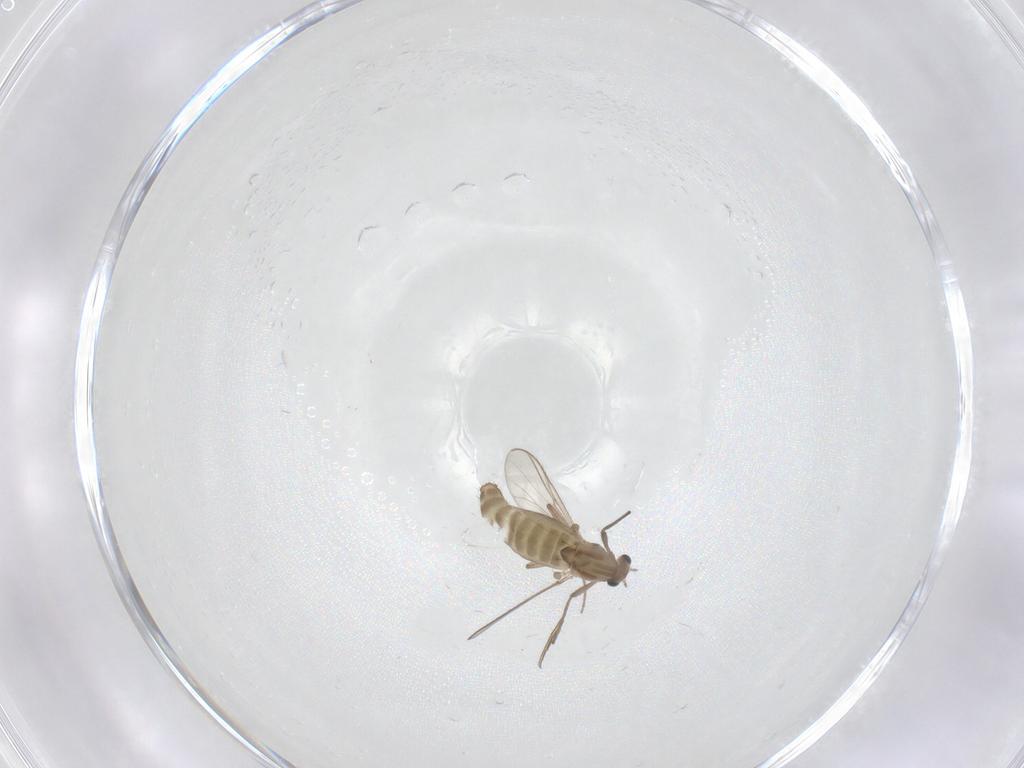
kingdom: Animalia
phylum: Arthropoda
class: Insecta
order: Diptera
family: Chironomidae
